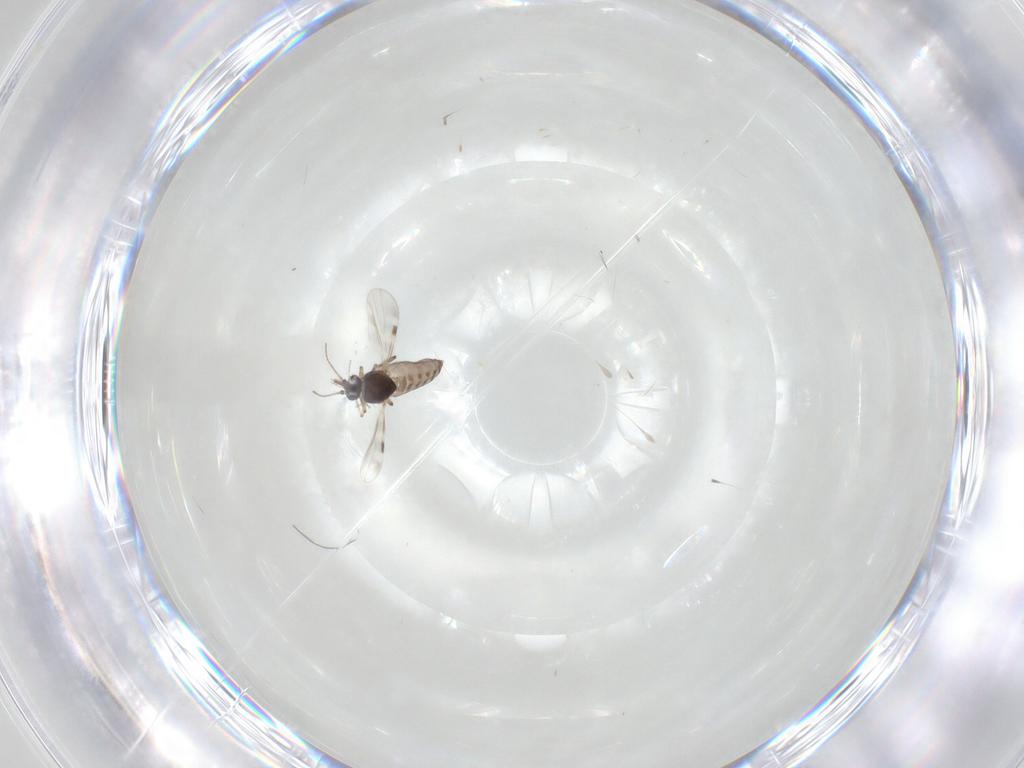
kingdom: Animalia
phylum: Arthropoda
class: Insecta
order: Diptera
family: Clusiidae
